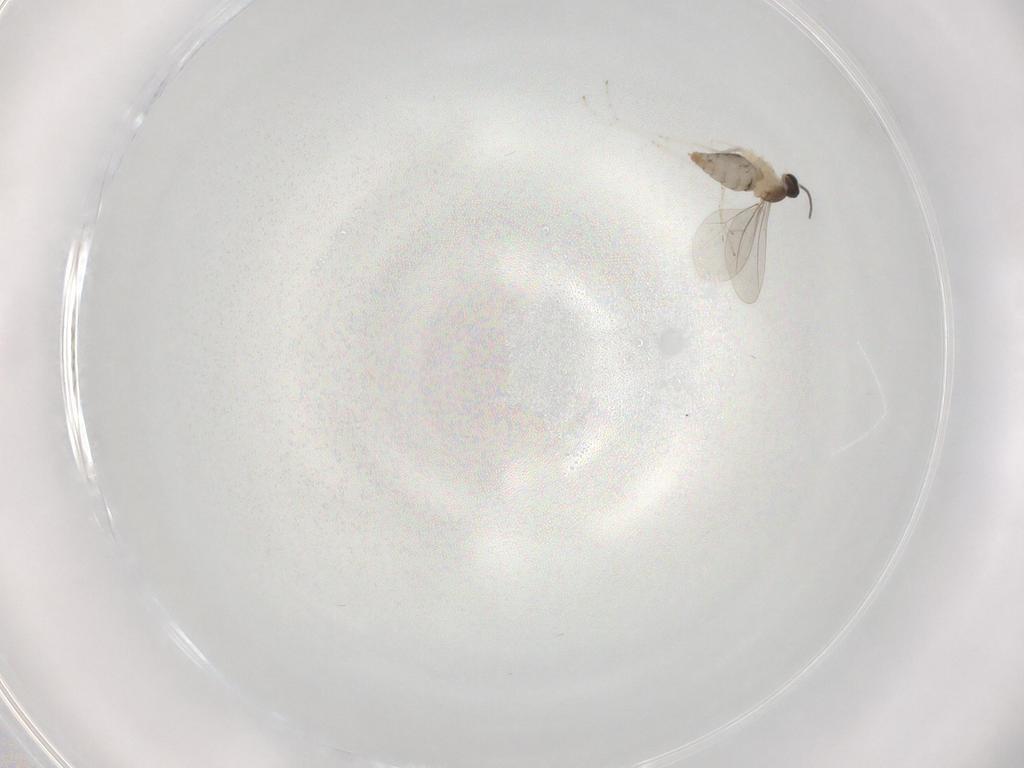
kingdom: Animalia
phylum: Arthropoda
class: Insecta
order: Diptera
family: Cecidomyiidae
